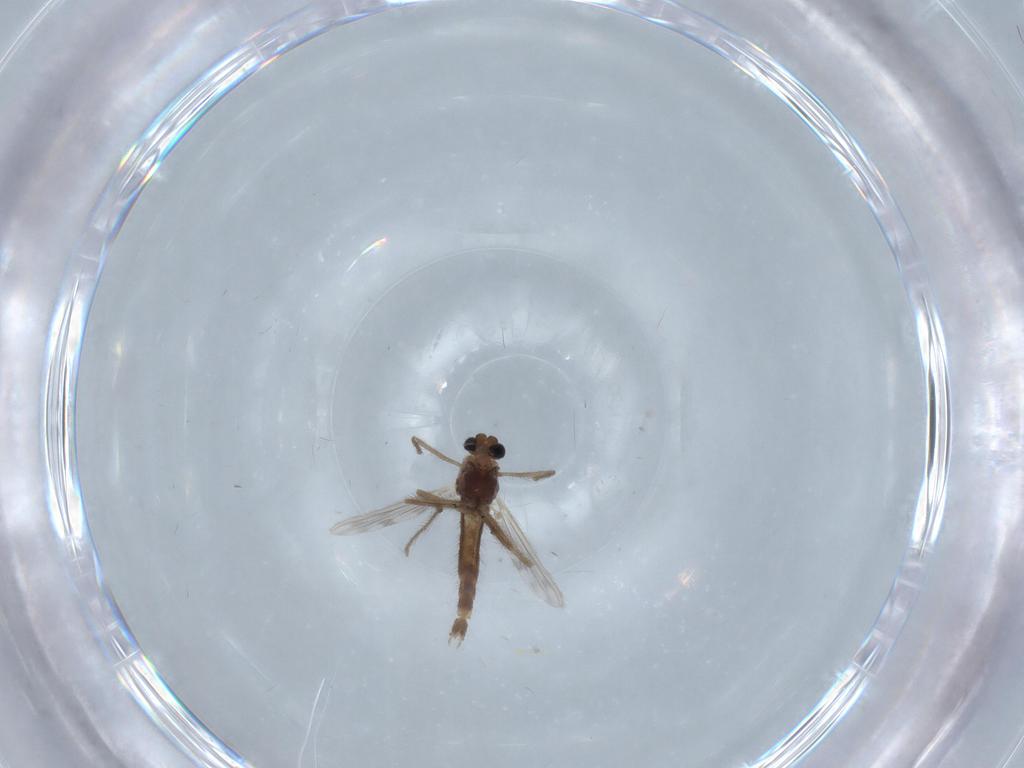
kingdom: Animalia
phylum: Arthropoda
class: Insecta
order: Diptera
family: Chironomidae
